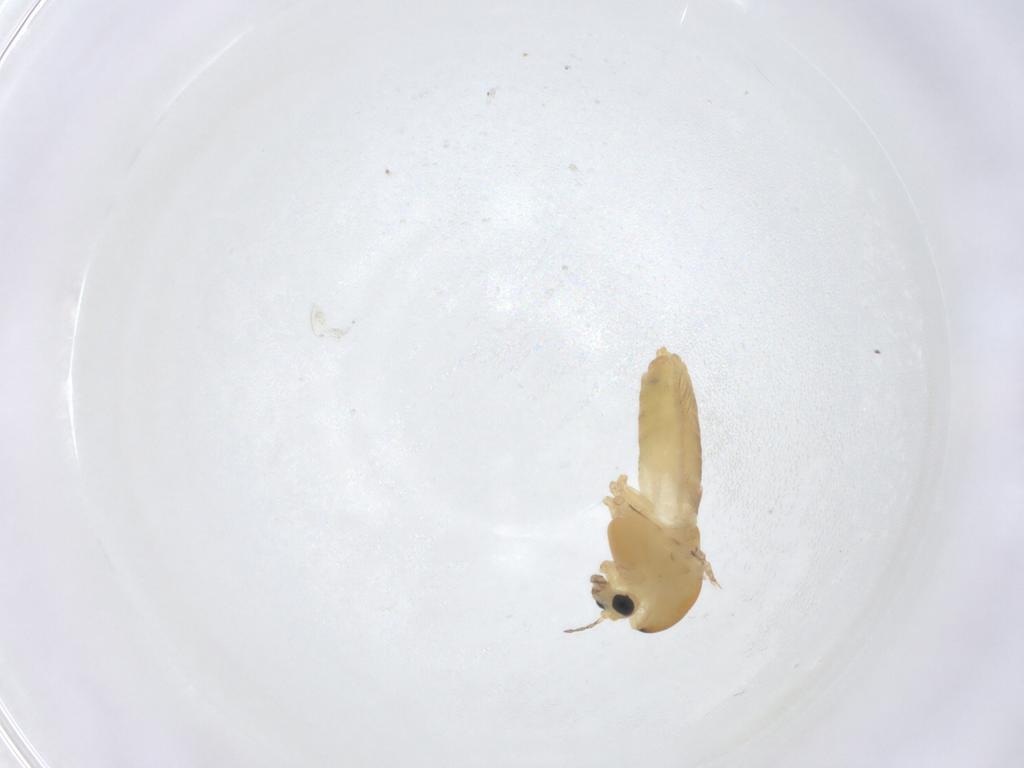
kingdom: Animalia
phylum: Arthropoda
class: Insecta
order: Diptera
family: Chironomidae
